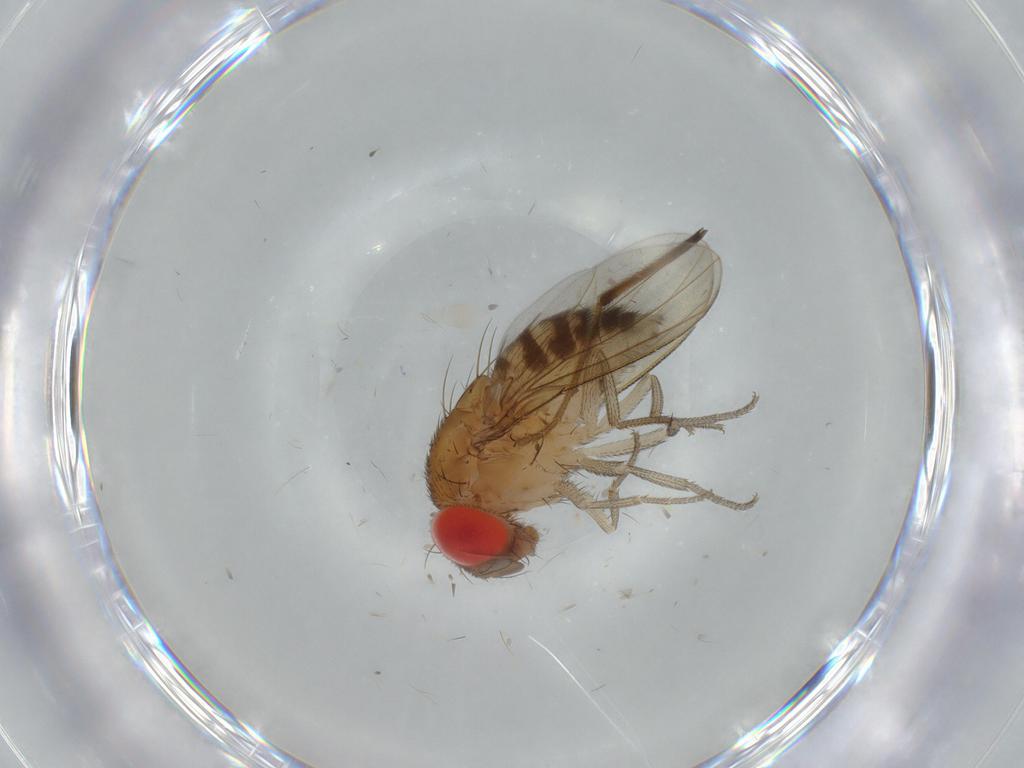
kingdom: Animalia
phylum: Arthropoda
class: Insecta
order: Diptera
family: Drosophilidae
